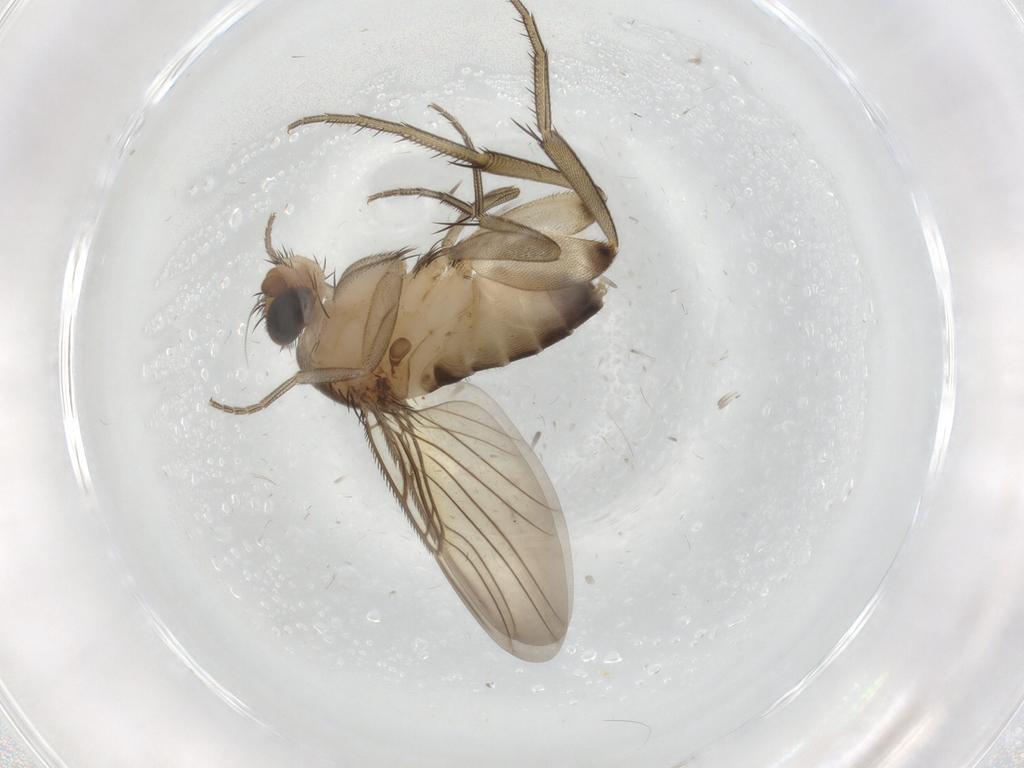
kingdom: Animalia
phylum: Arthropoda
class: Insecta
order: Diptera
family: Phoridae
